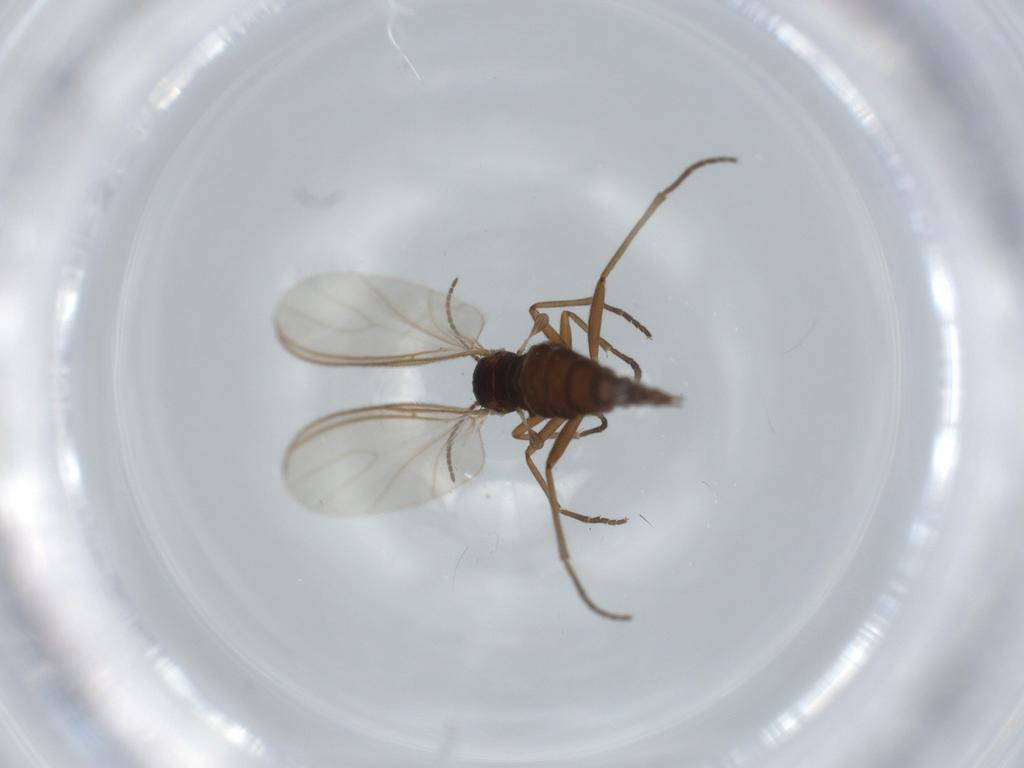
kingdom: Animalia
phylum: Arthropoda
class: Insecta
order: Diptera
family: Sciaridae
